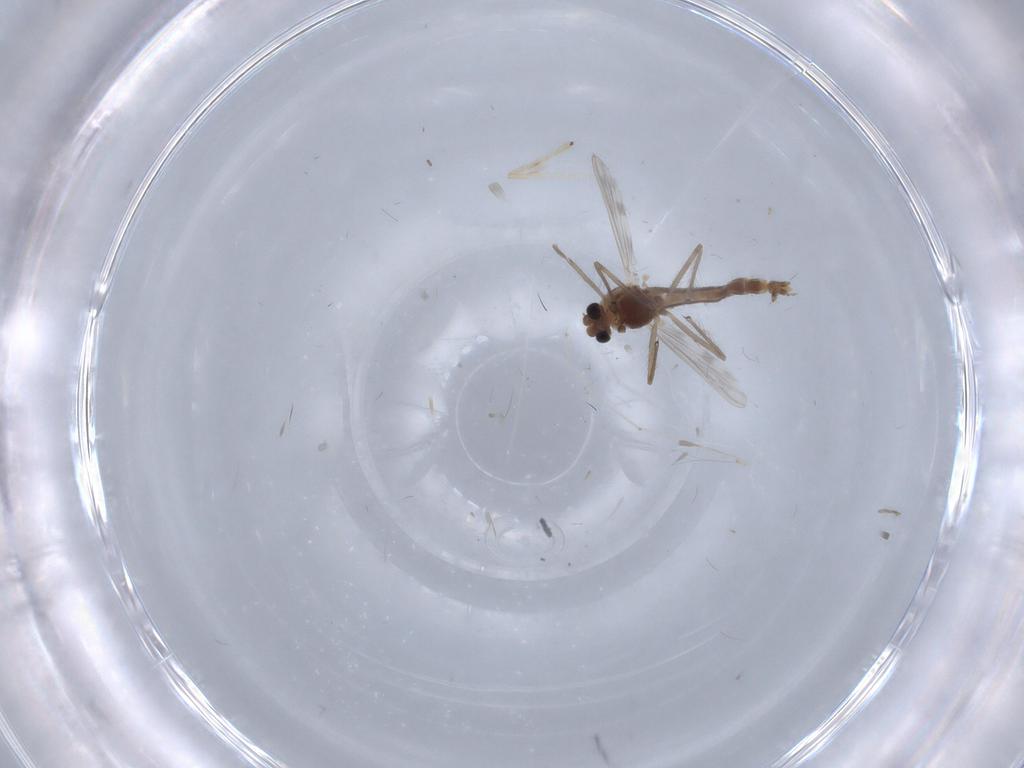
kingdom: Animalia
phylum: Arthropoda
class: Insecta
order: Diptera
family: Chironomidae
